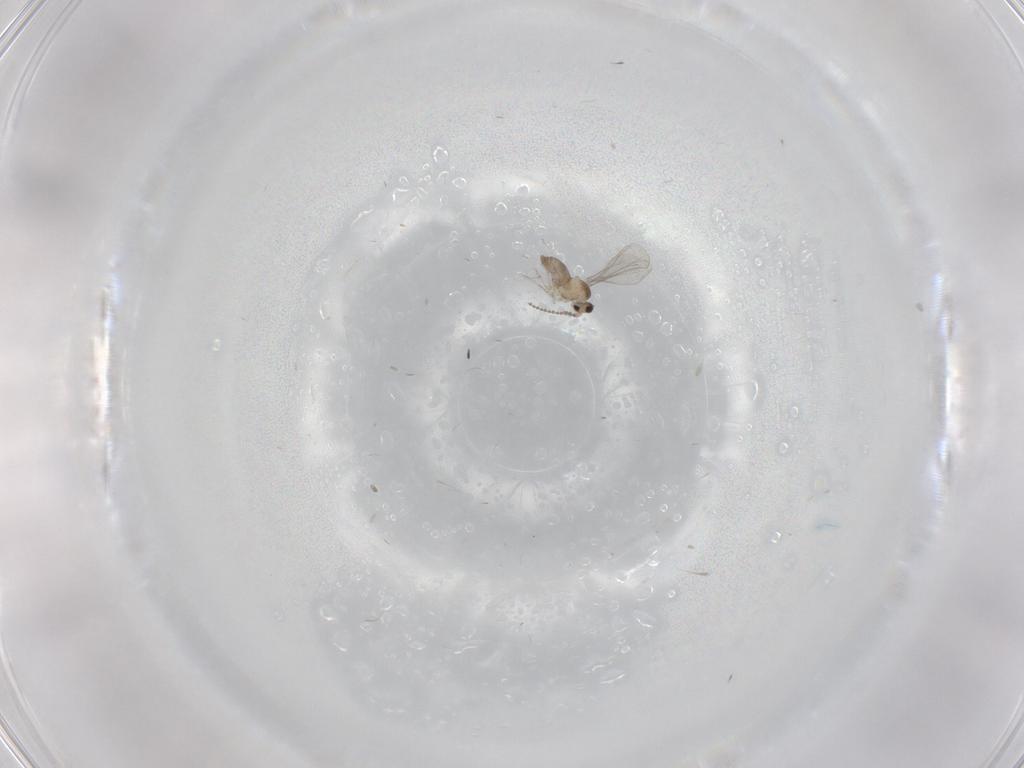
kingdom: Animalia
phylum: Arthropoda
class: Insecta
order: Diptera
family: Cecidomyiidae
